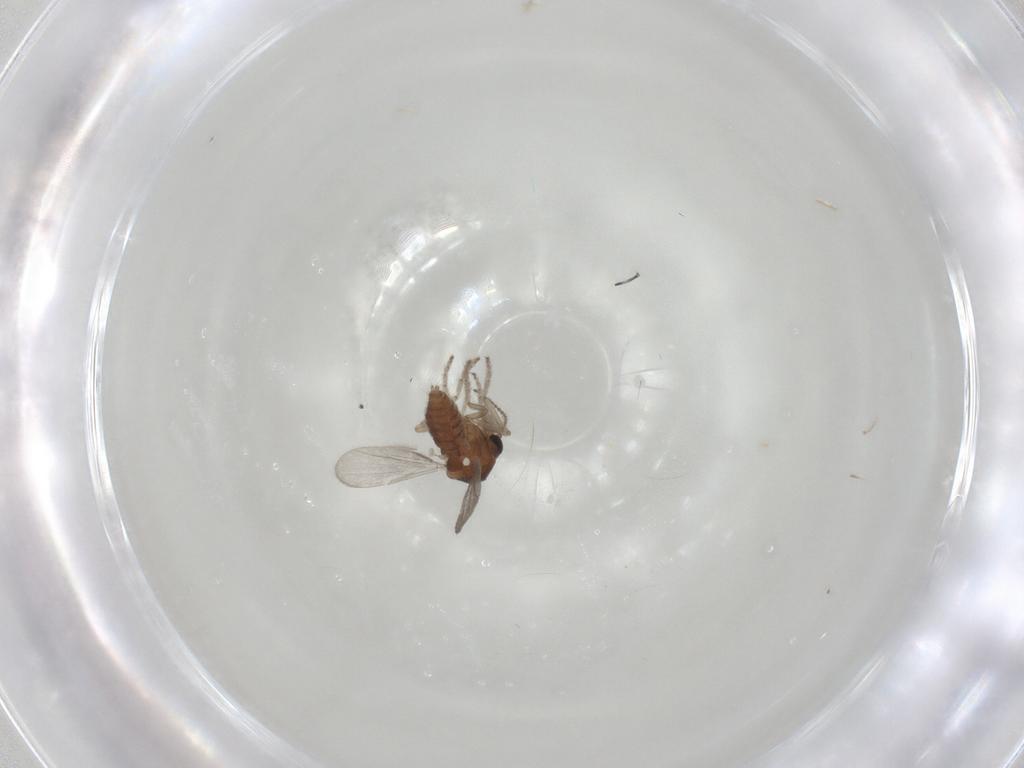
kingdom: Animalia
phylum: Arthropoda
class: Insecta
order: Diptera
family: Ceratopogonidae
